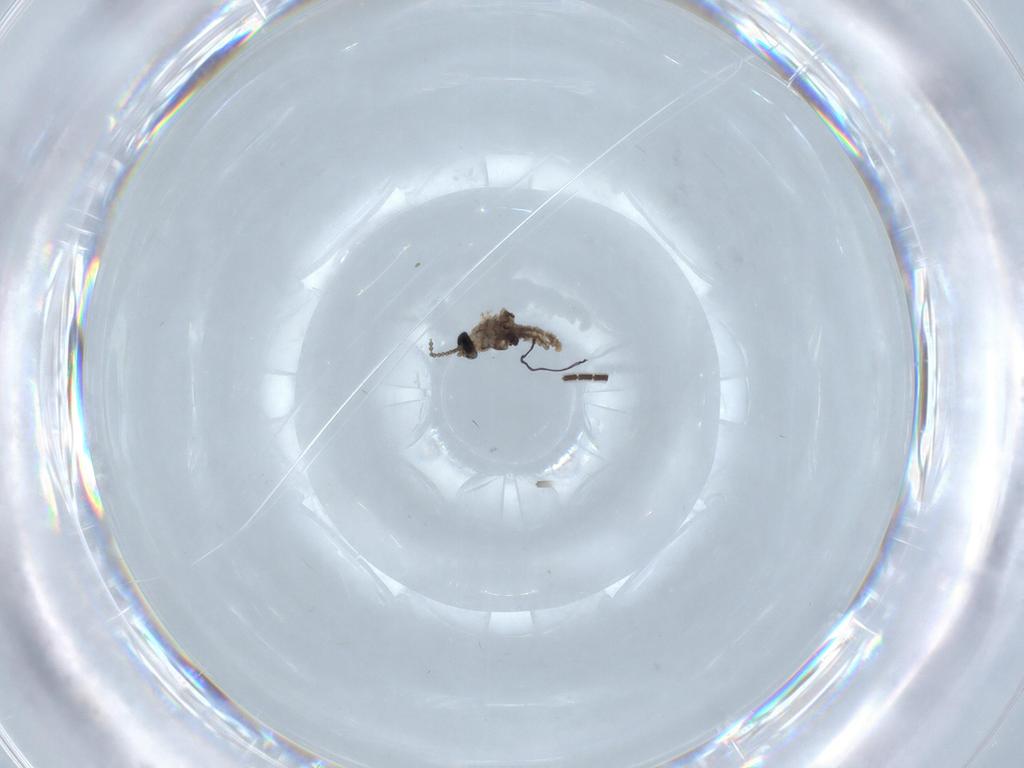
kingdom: Animalia
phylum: Arthropoda
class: Insecta
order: Diptera
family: Cecidomyiidae
